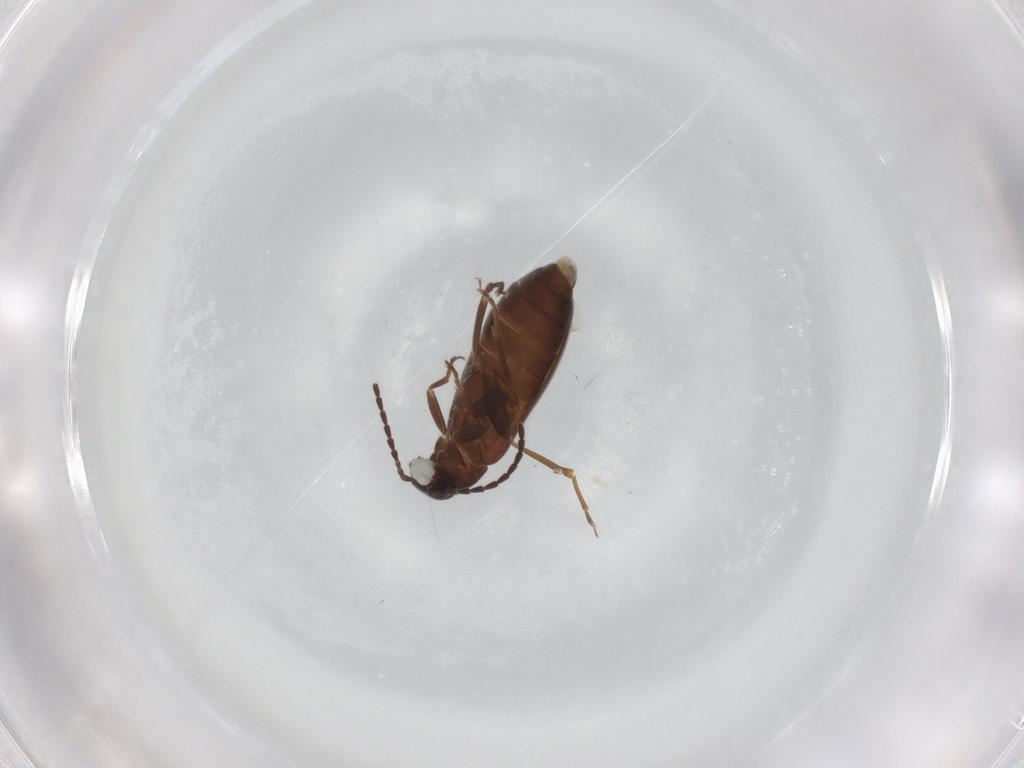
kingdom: Animalia
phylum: Arthropoda
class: Insecta
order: Coleoptera
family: Scraptiidae
